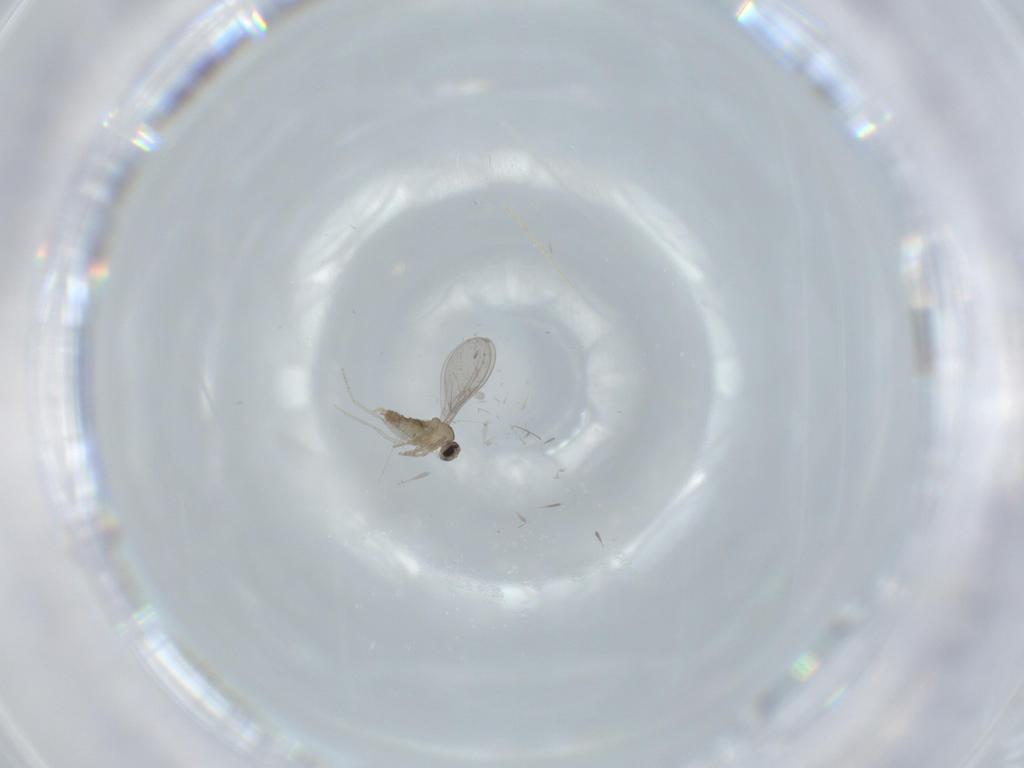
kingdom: Animalia
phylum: Arthropoda
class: Insecta
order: Diptera
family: Cecidomyiidae
